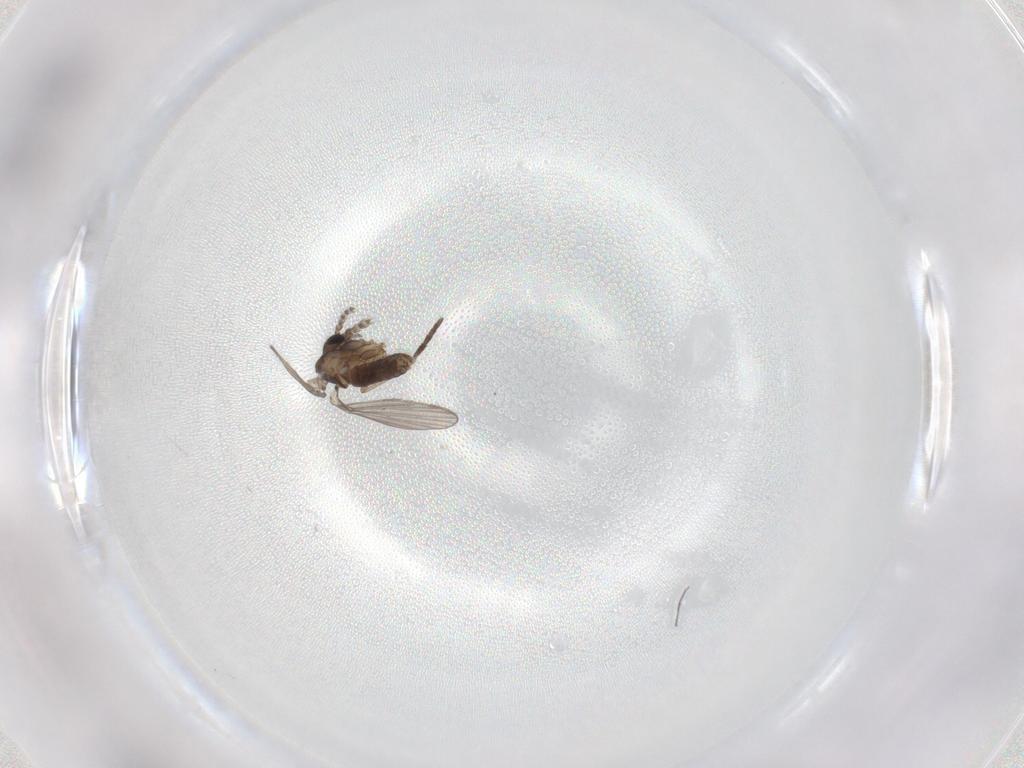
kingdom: Animalia
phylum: Arthropoda
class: Insecta
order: Diptera
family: Psychodidae
